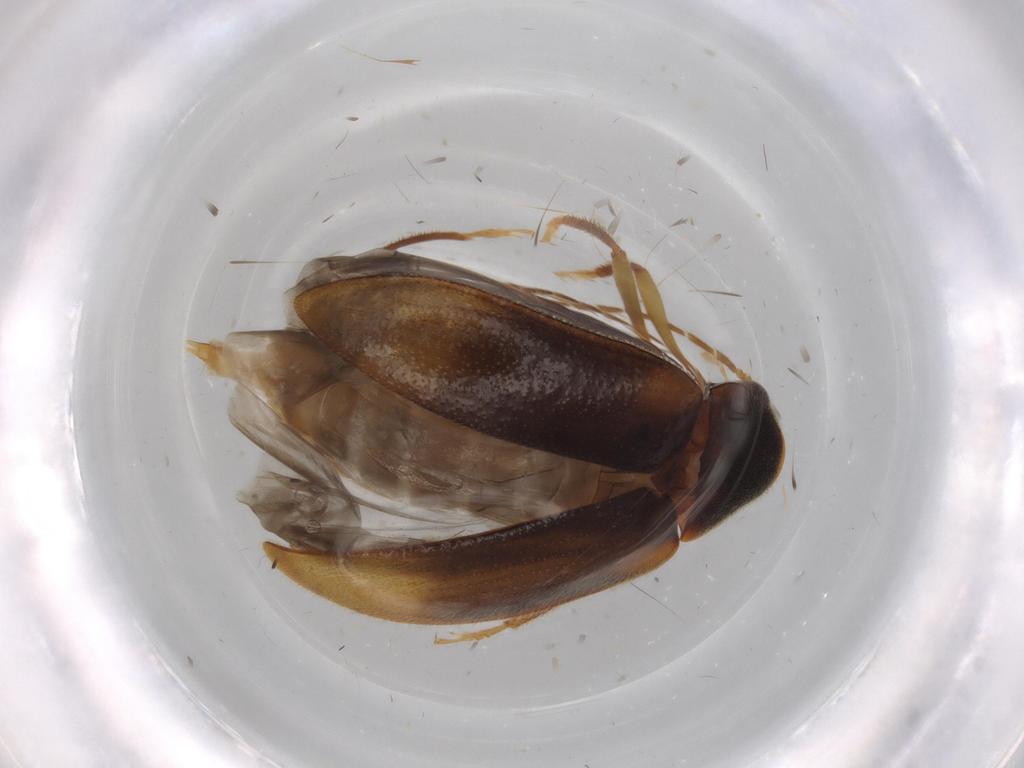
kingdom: Animalia
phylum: Arthropoda
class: Insecta
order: Coleoptera
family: Ptilodactylidae
